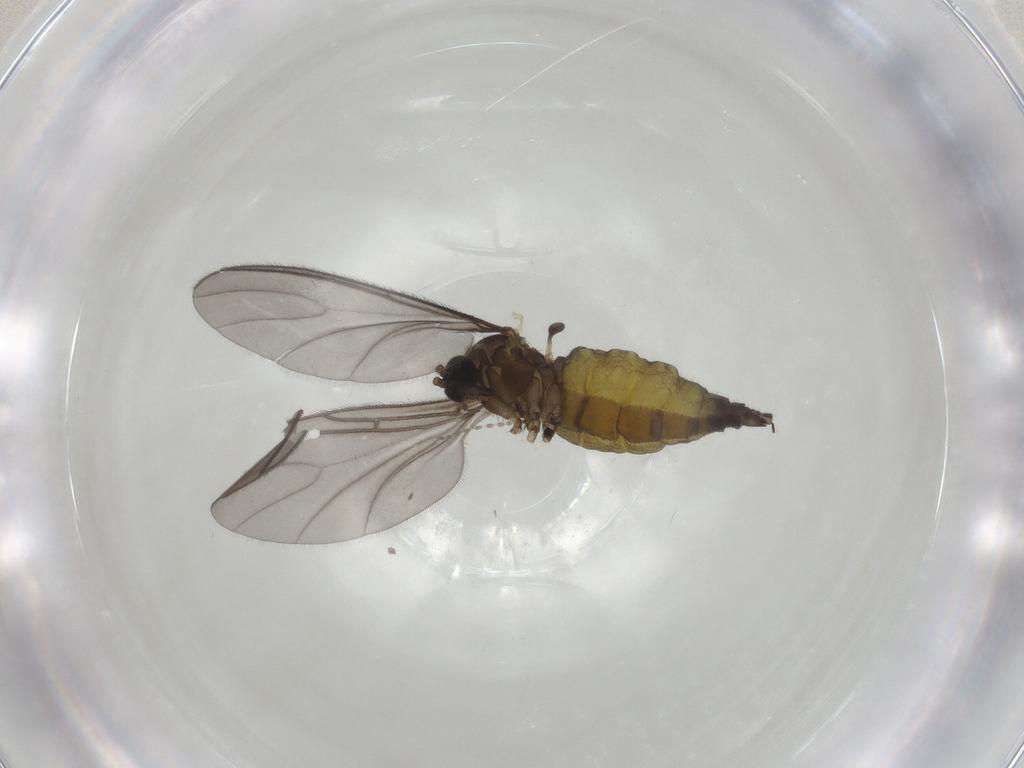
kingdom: Animalia
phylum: Arthropoda
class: Insecta
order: Diptera
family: Sciaridae
